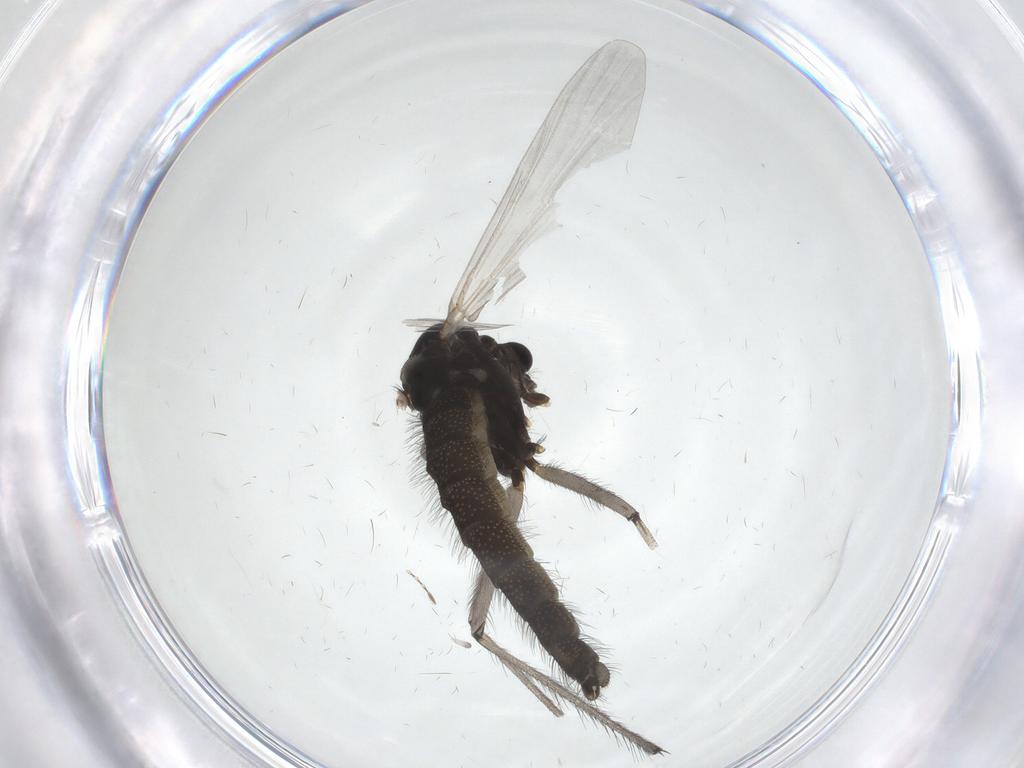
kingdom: Animalia
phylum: Arthropoda
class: Insecta
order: Diptera
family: Chironomidae
